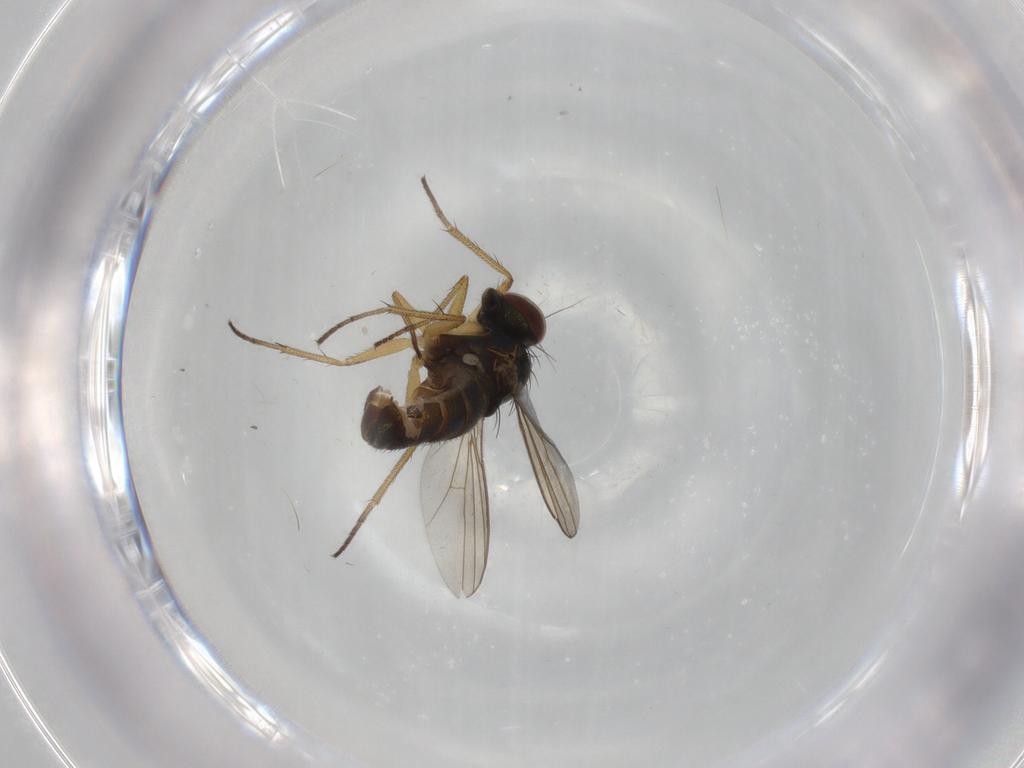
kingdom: Animalia
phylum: Arthropoda
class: Insecta
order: Diptera
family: Dolichopodidae
